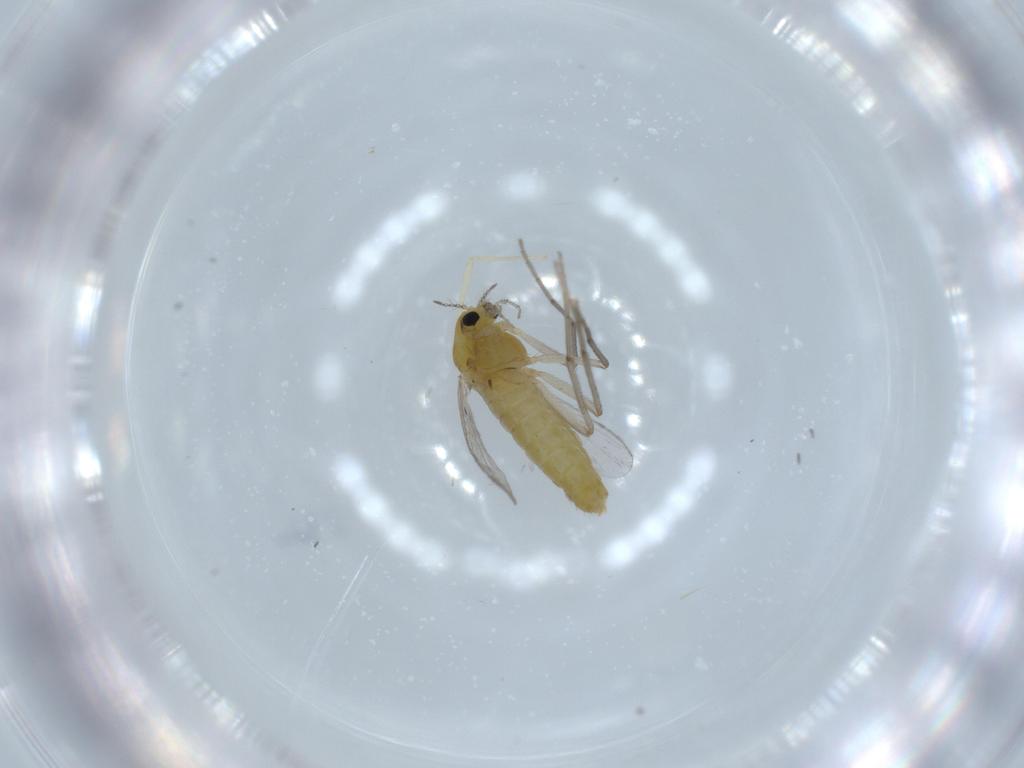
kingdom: Animalia
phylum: Arthropoda
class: Insecta
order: Diptera
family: Chironomidae
